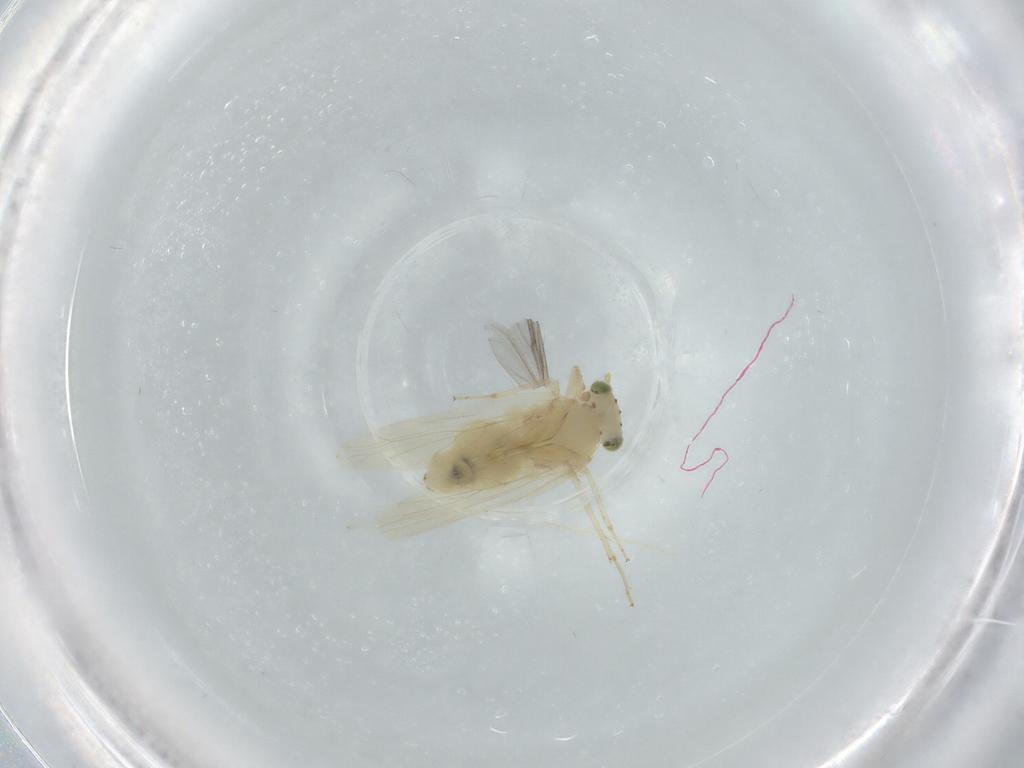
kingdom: Animalia
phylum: Arthropoda
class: Insecta
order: Psocodea
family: Lepidopsocidae
